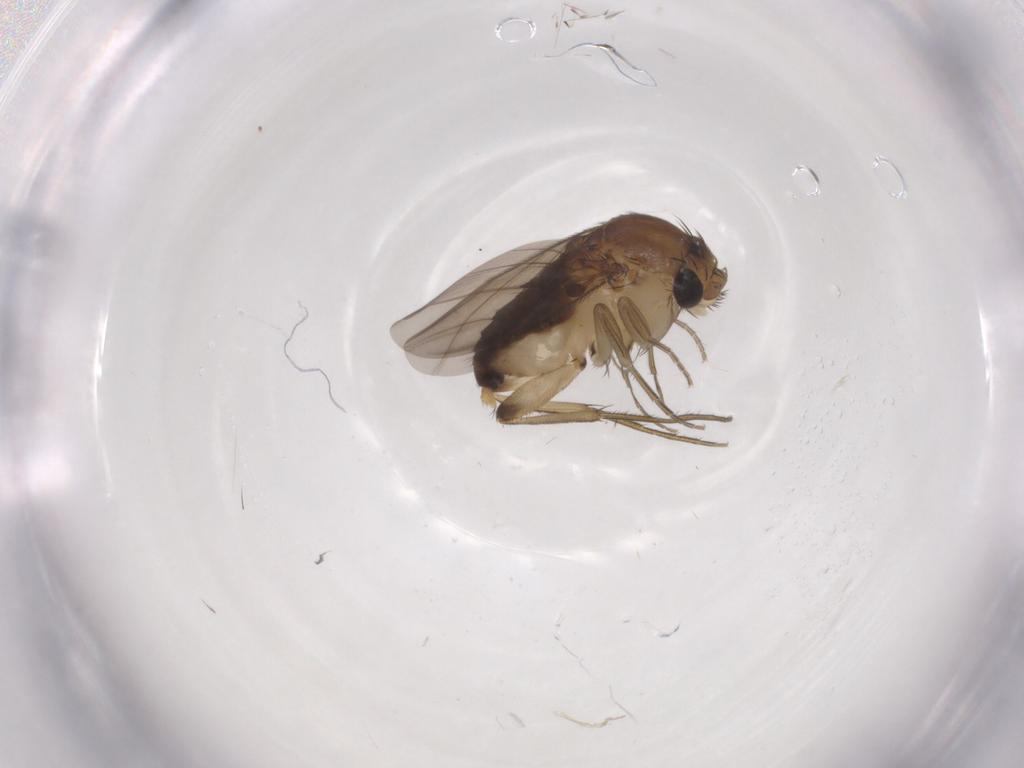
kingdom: Animalia
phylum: Arthropoda
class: Insecta
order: Diptera
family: Phoridae
